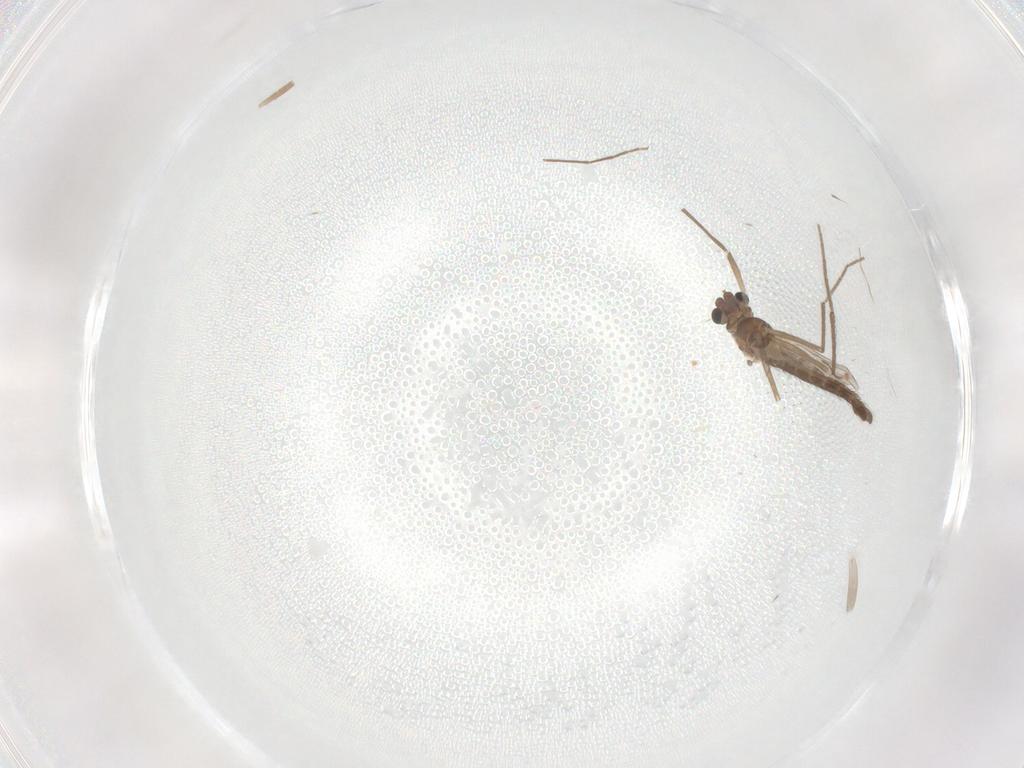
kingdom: Animalia
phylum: Arthropoda
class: Insecta
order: Diptera
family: Chironomidae
